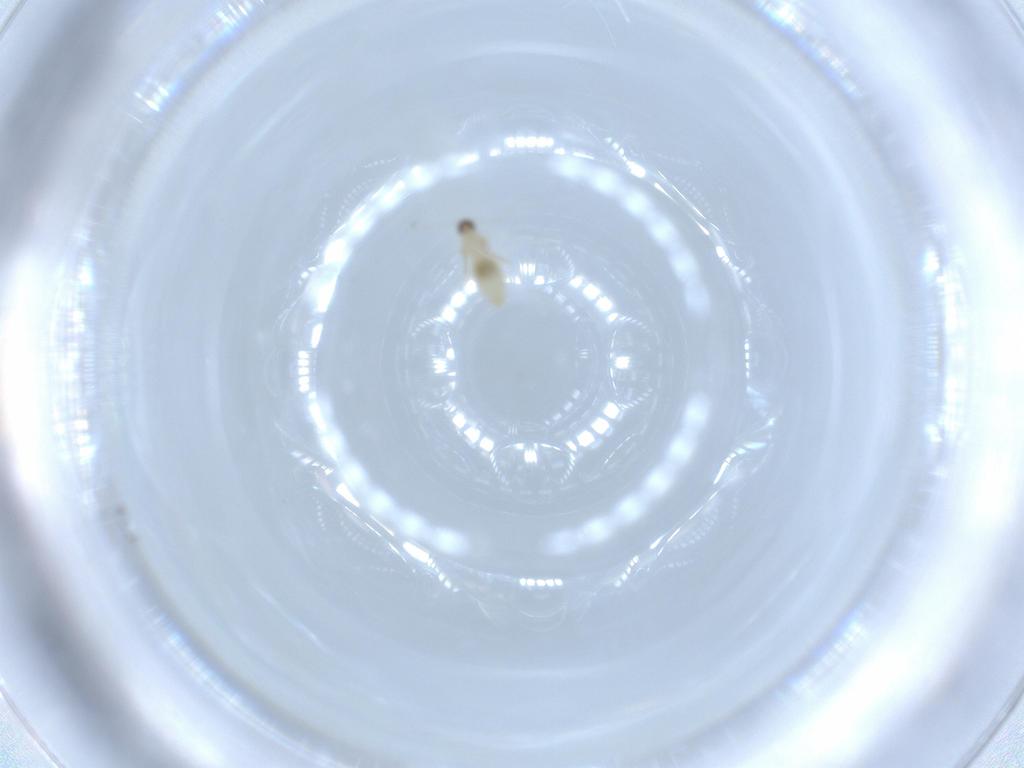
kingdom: Animalia
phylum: Arthropoda
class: Insecta
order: Diptera
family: Cecidomyiidae
